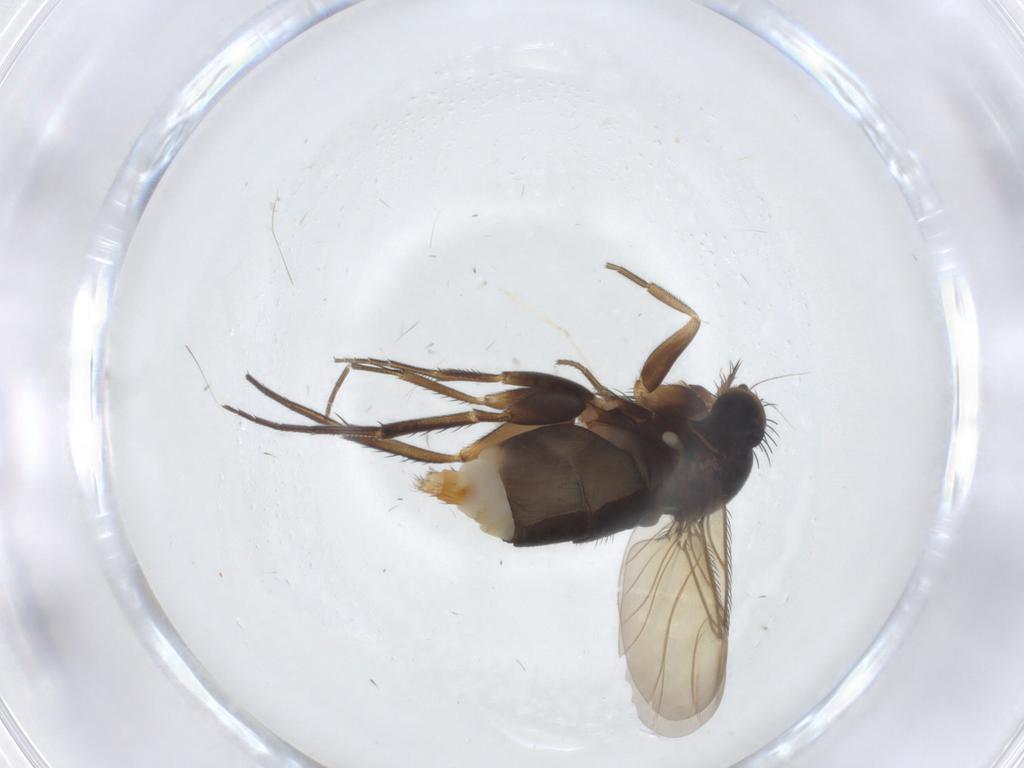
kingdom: Animalia
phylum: Arthropoda
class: Insecta
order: Diptera
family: Phoridae
